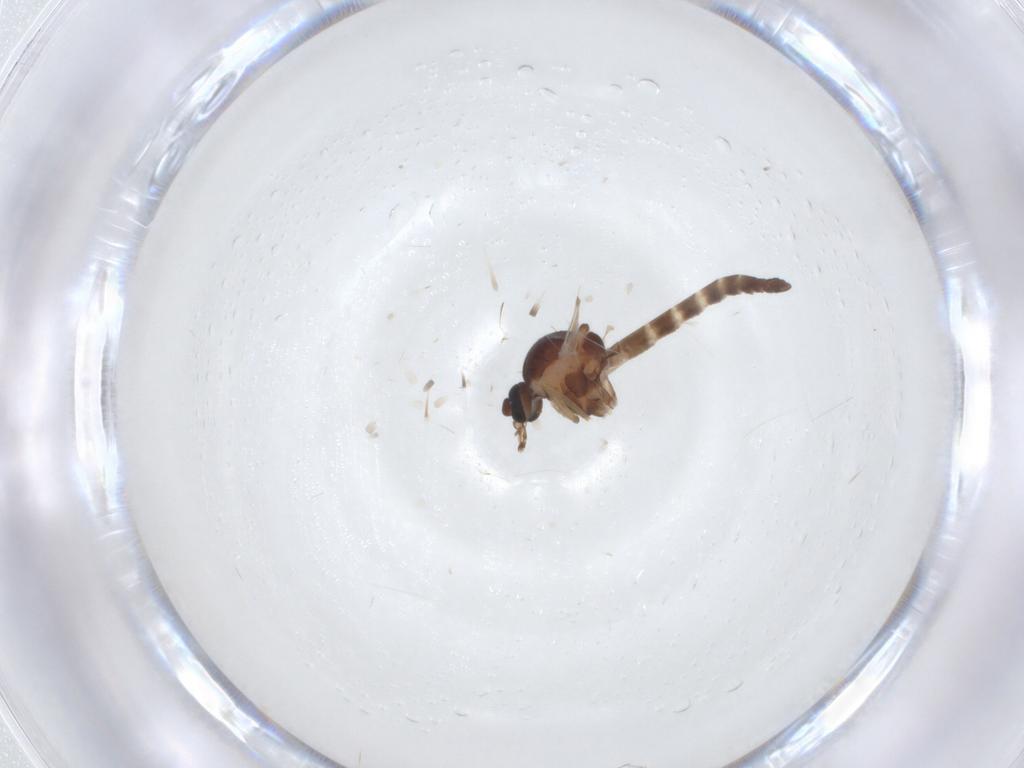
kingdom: Animalia
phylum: Arthropoda
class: Insecta
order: Diptera
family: Ceratopogonidae
